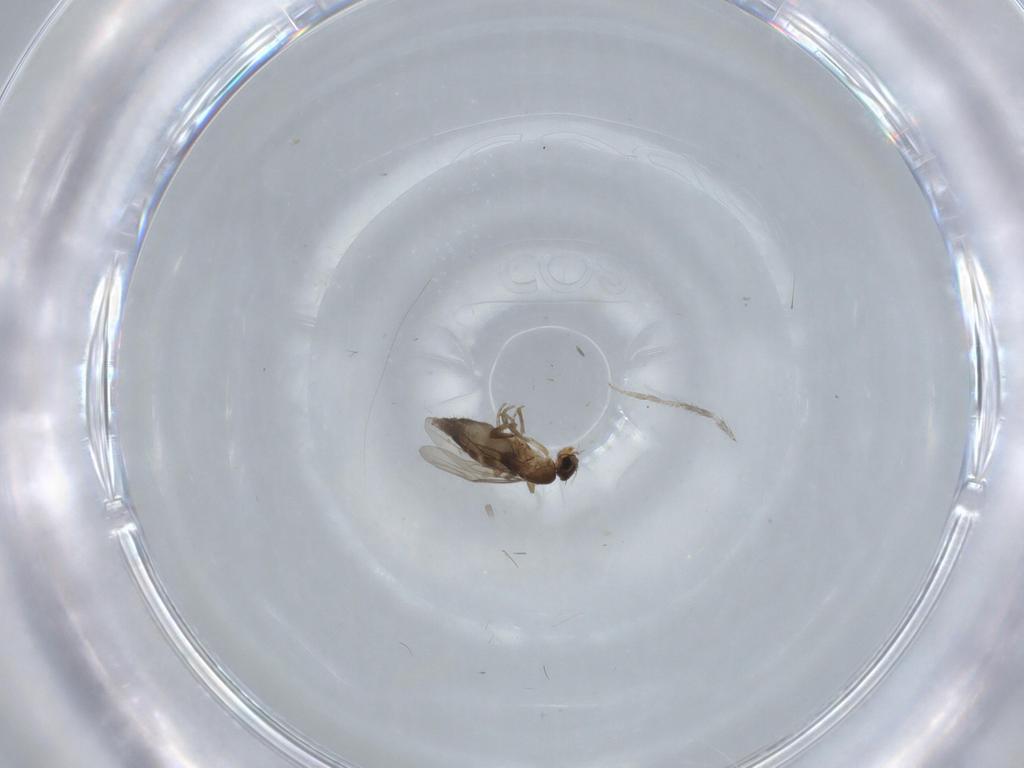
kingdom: Animalia
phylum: Arthropoda
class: Insecta
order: Diptera
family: Phoridae
